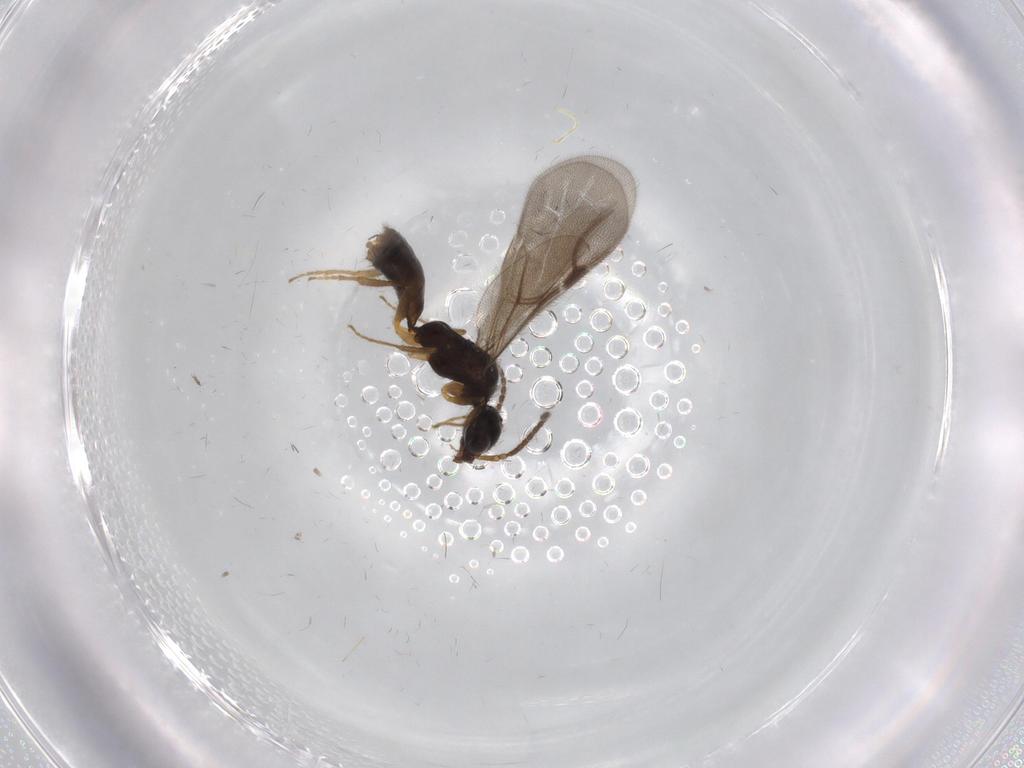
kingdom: Animalia
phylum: Arthropoda
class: Insecta
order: Hymenoptera
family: Bethylidae
